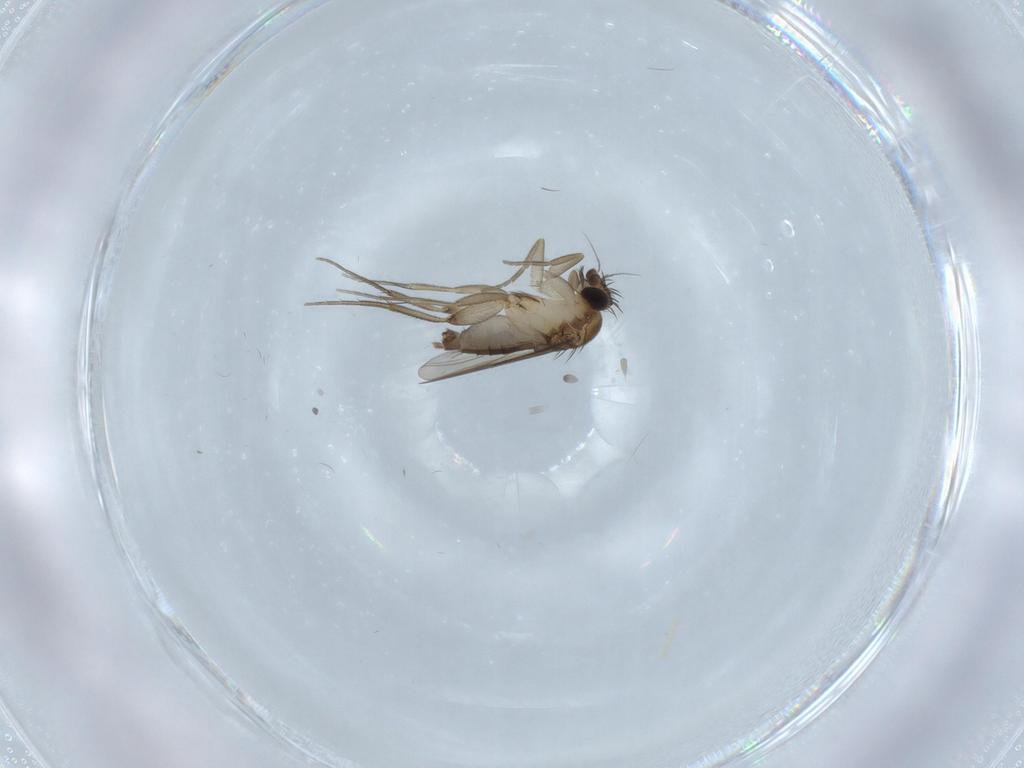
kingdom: Animalia
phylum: Arthropoda
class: Insecta
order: Diptera
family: Phoridae
